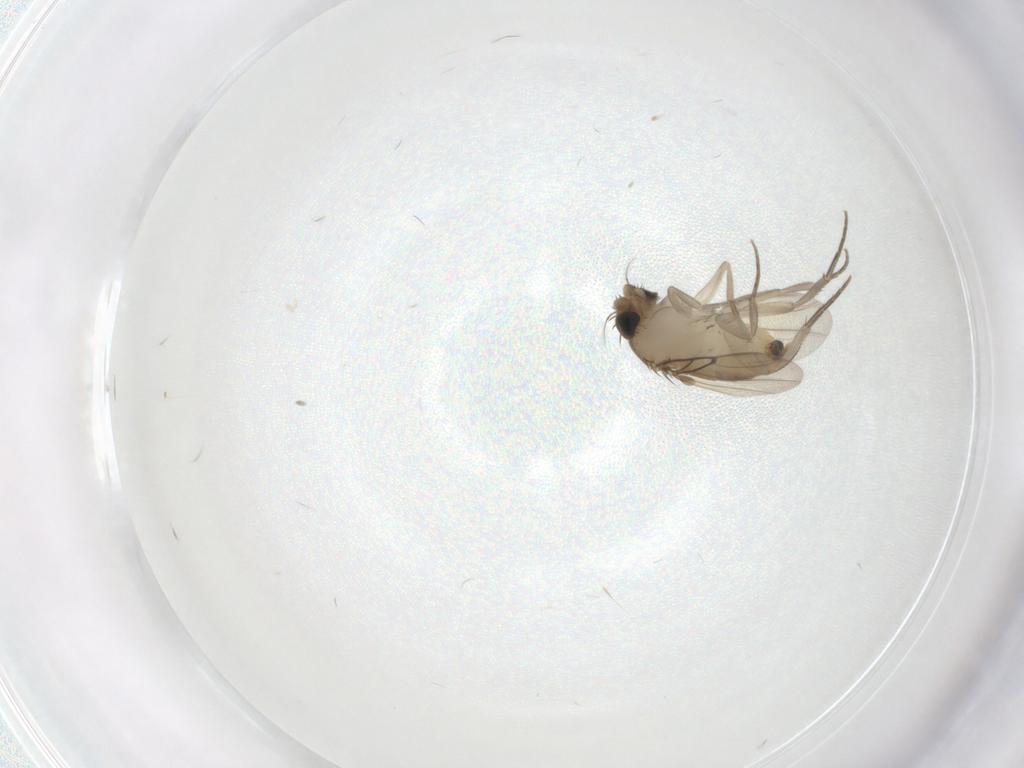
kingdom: Animalia
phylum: Arthropoda
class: Insecta
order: Diptera
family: Phoridae
